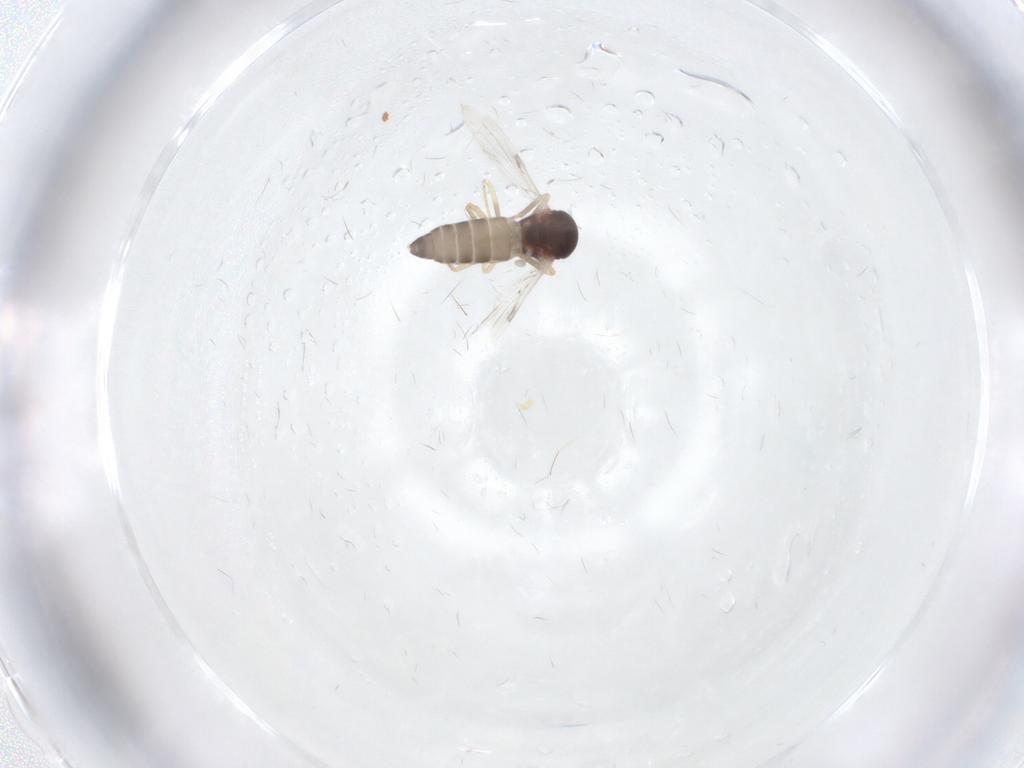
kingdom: Animalia
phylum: Arthropoda
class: Insecta
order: Diptera
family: Ceratopogonidae
